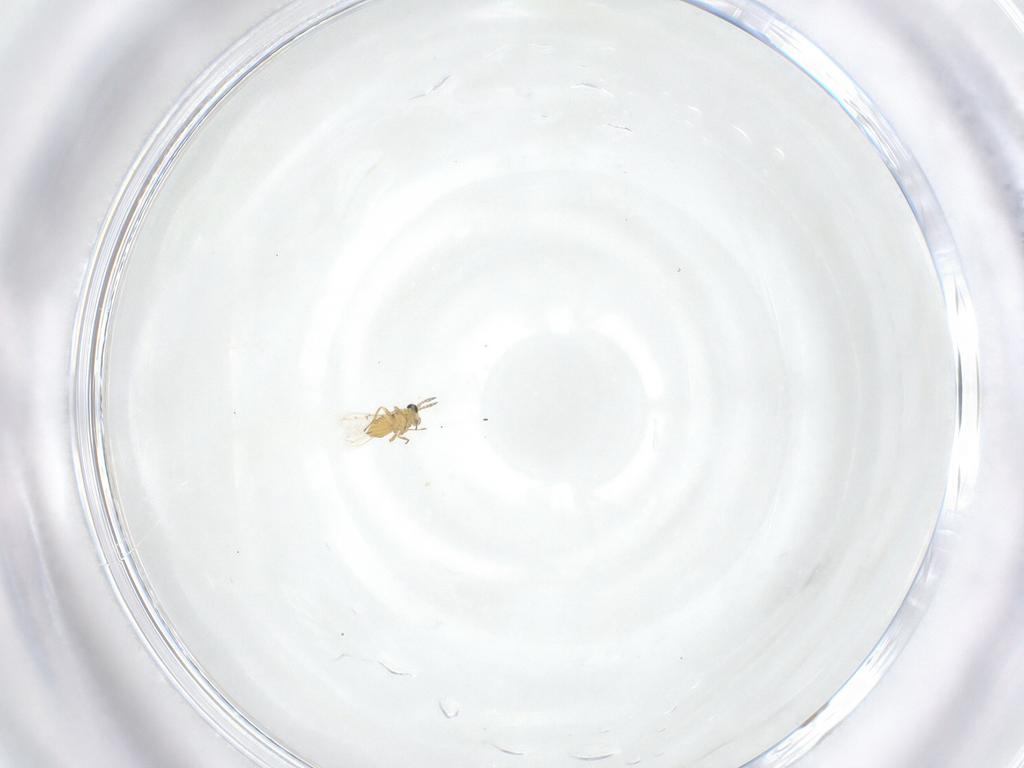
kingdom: Animalia
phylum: Arthropoda
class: Insecta
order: Hymenoptera
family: Trichogrammatidae
